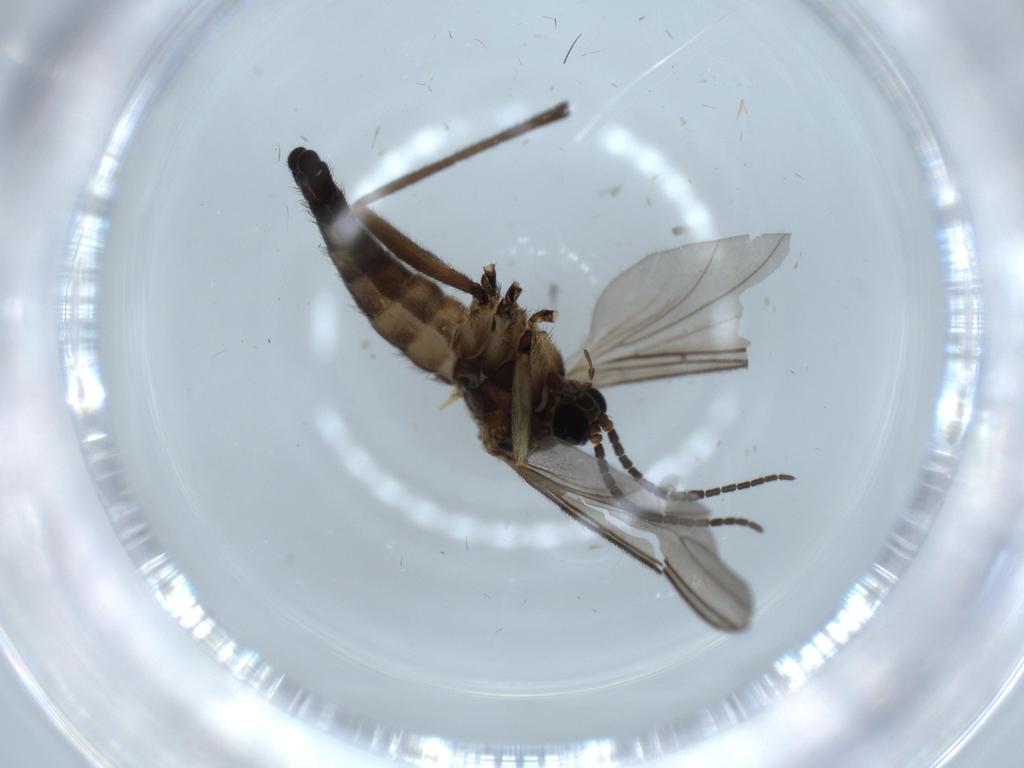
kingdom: Animalia
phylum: Arthropoda
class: Insecta
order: Diptera
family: Sciaridae
